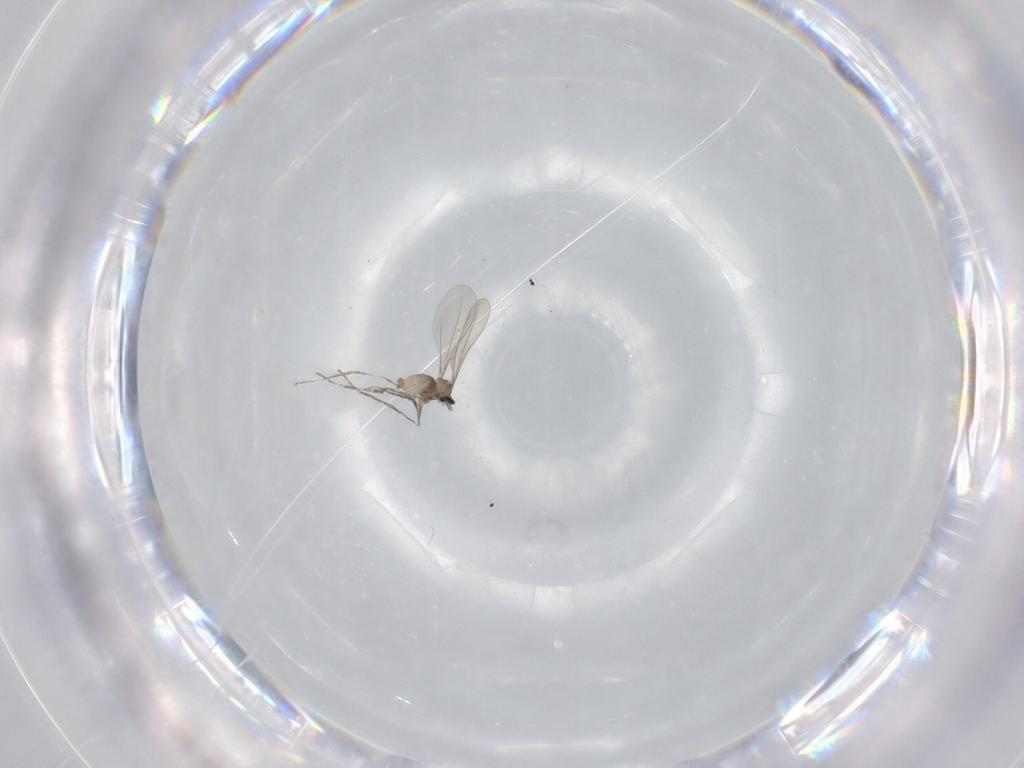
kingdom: Animalia
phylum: Arthropoda
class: Insecta
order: Diptera
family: Cecidomyiidae
